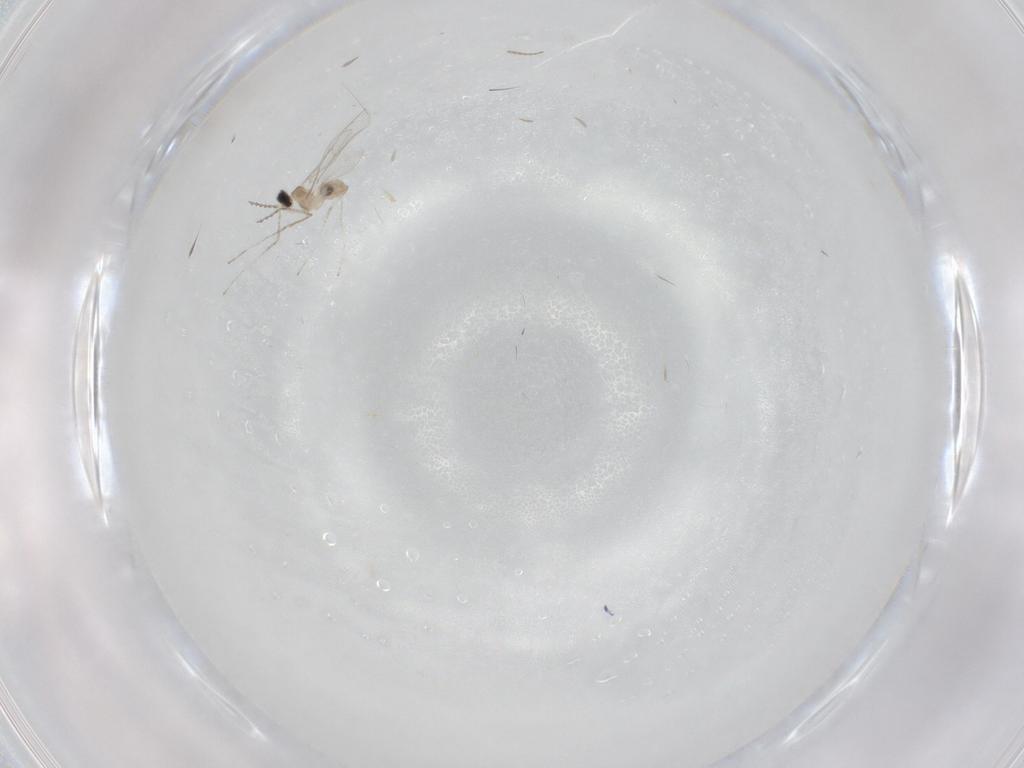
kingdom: Animalia
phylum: Arthropoda
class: Insecta
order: Diptera
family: Cecidomyiidae
